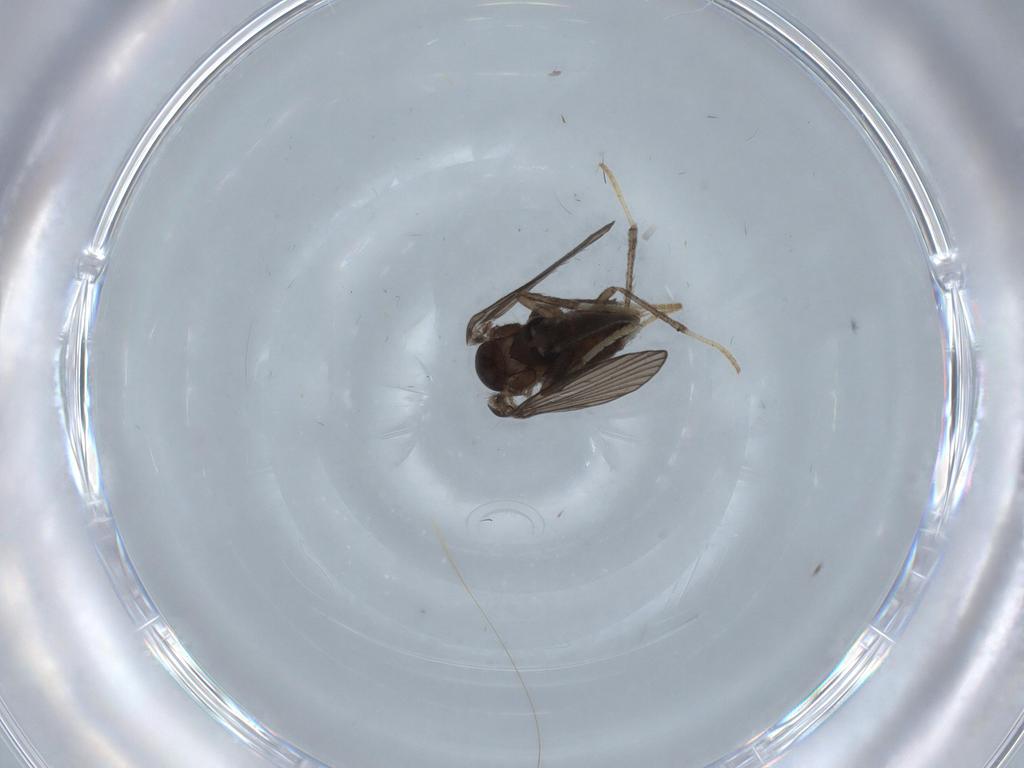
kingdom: Animalia
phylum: Arthropoda
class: Insecta
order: Diptera
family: Psychodidae
